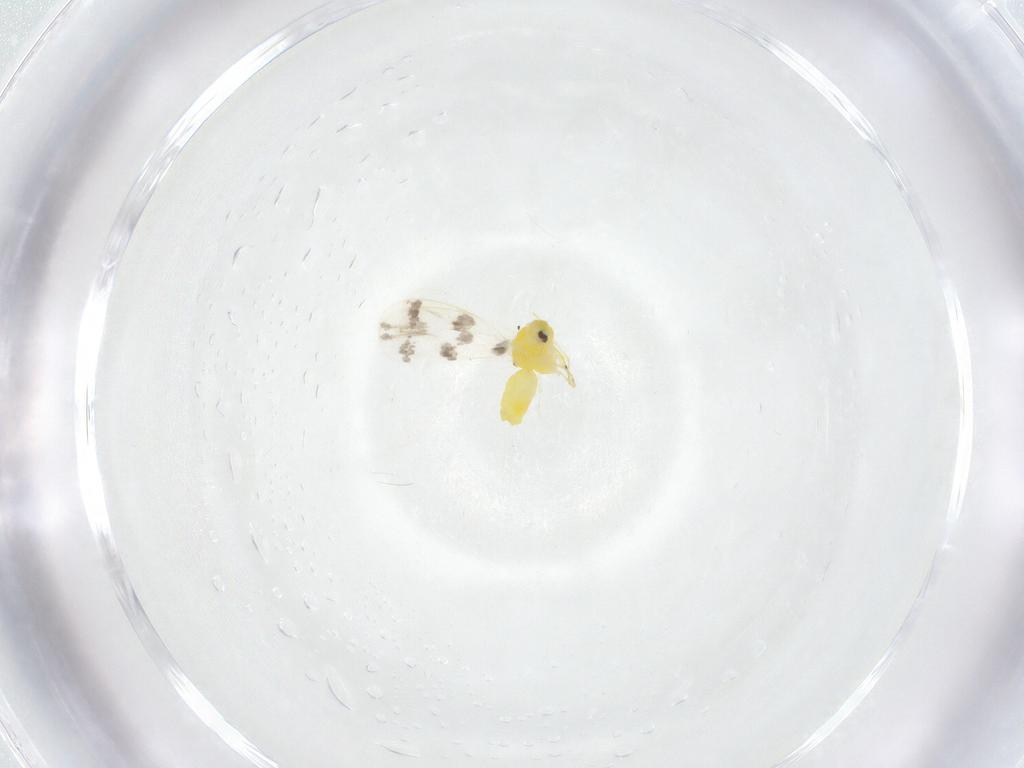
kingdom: Animalia
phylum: Arthropoda
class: Insecta
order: Hemiptera
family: Aleyrodidae
